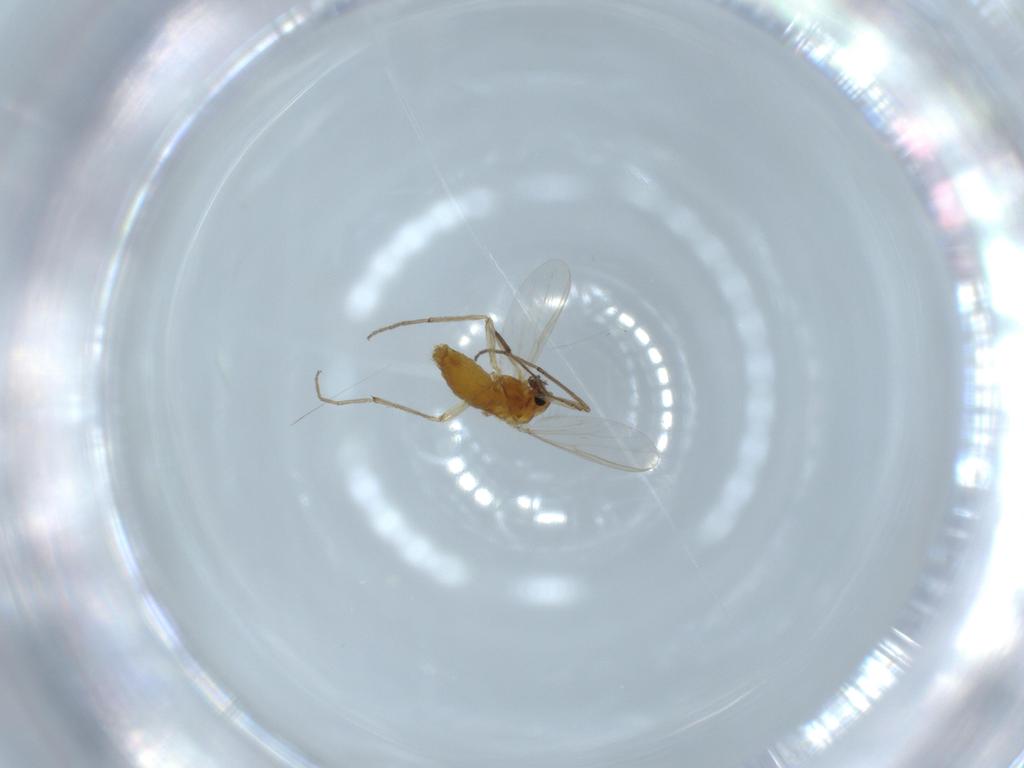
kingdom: Animalia
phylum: Arthropoda
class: Insecta
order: Diptera
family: Chironomidae
